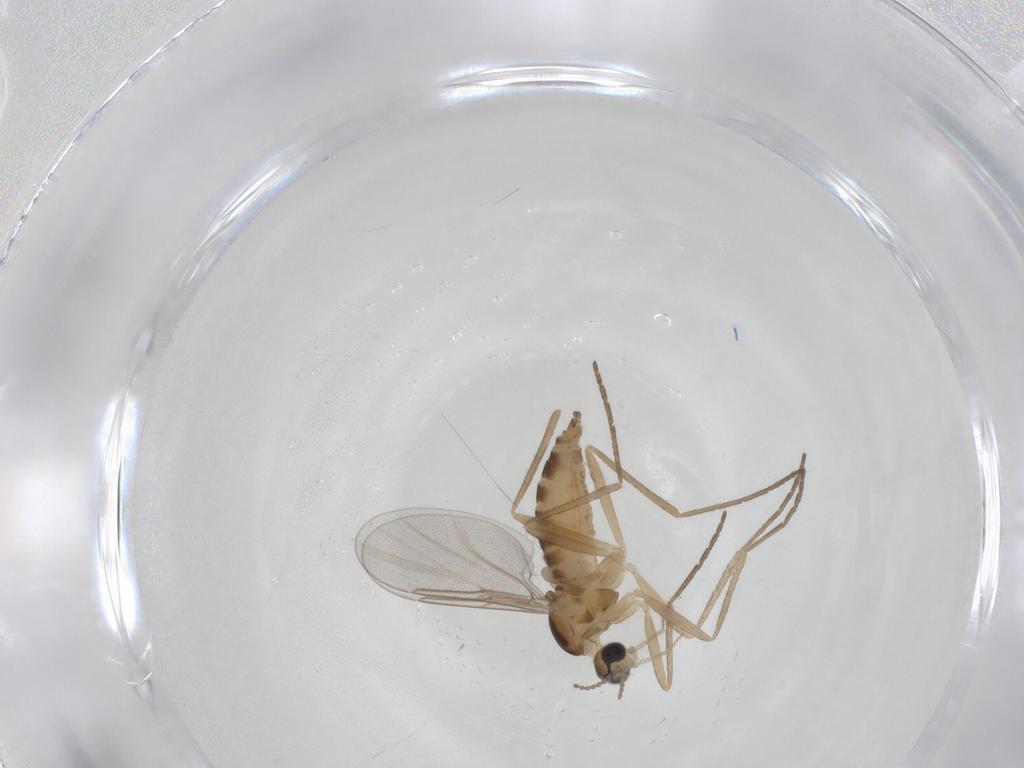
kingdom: Animalia
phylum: Arthropoda
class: Insecta
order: Diptera
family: Cecidomyiidae
